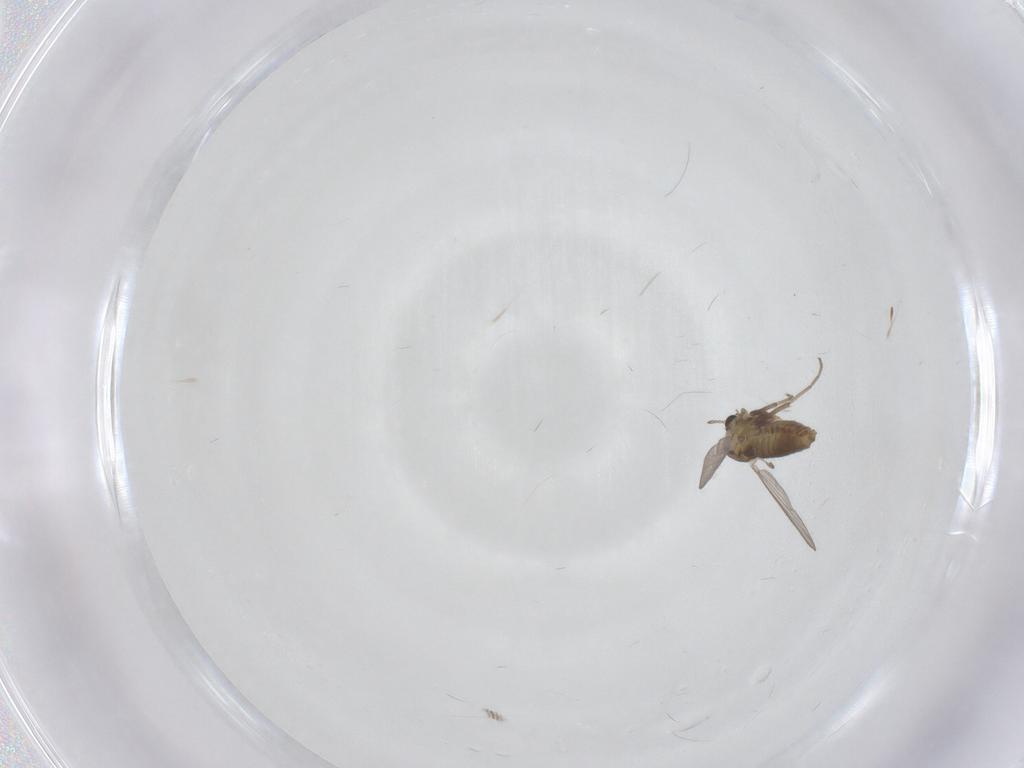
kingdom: Animalia
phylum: Arthropoda
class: Insecta
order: Diptera
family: Chironomidae
